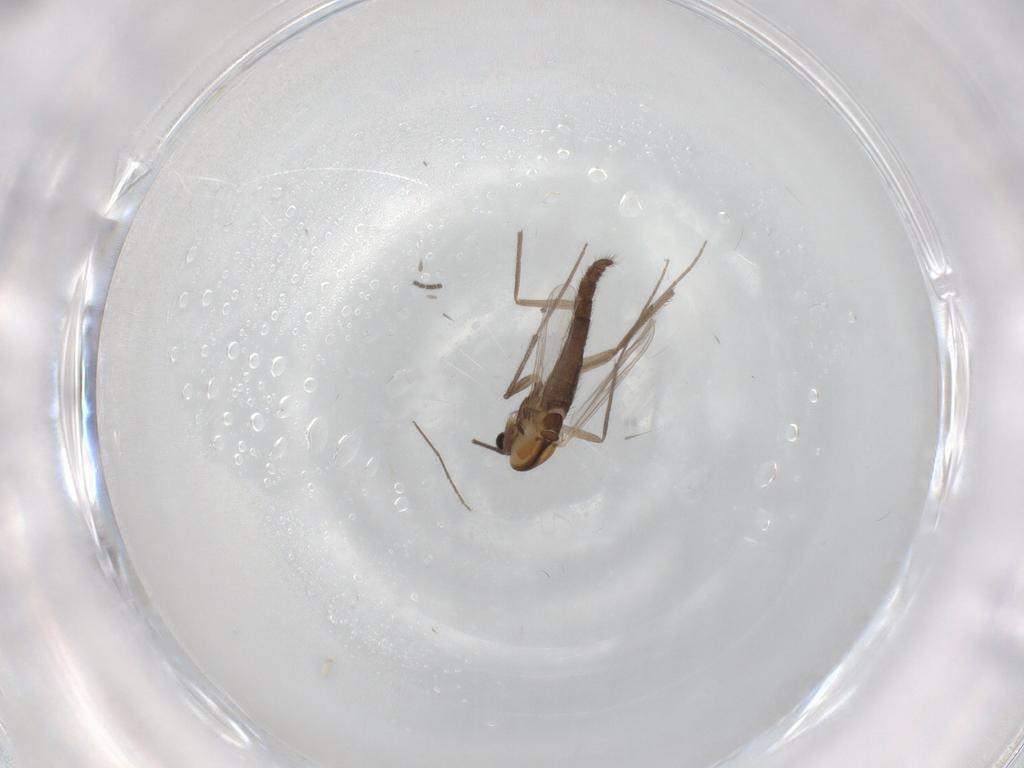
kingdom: Animalia
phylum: Arthropoda
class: Insecta
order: Diptera
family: Chironomidae
